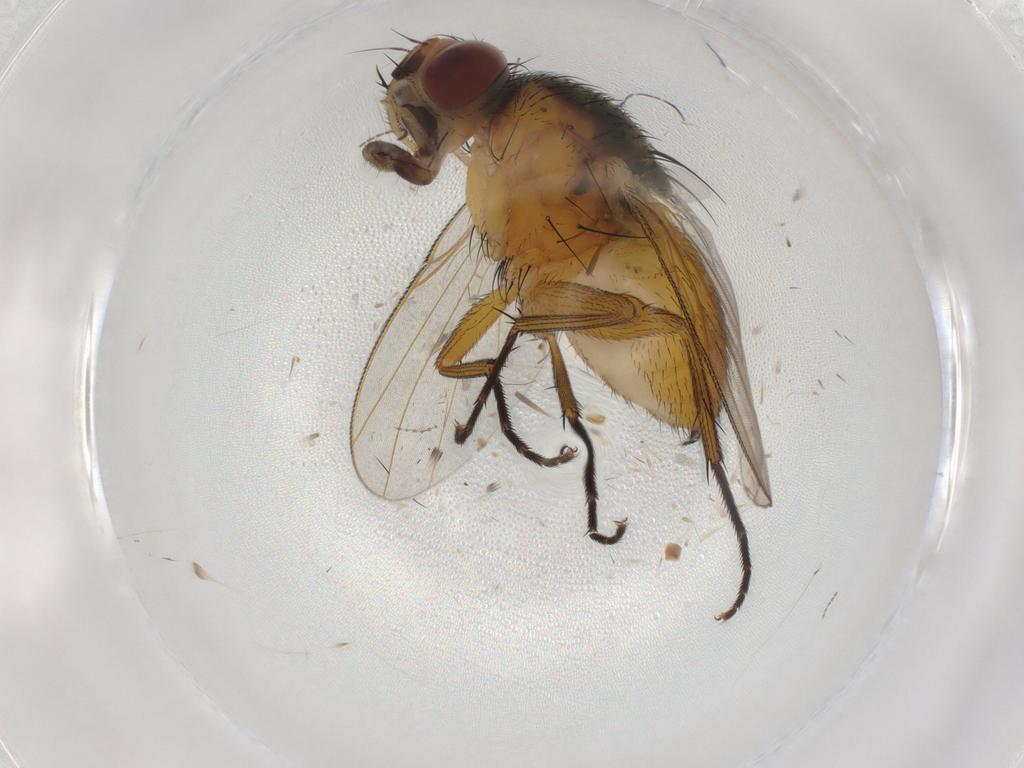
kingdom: Animalia
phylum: Arthropoda
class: Insecta
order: Diptera
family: Muscidae
